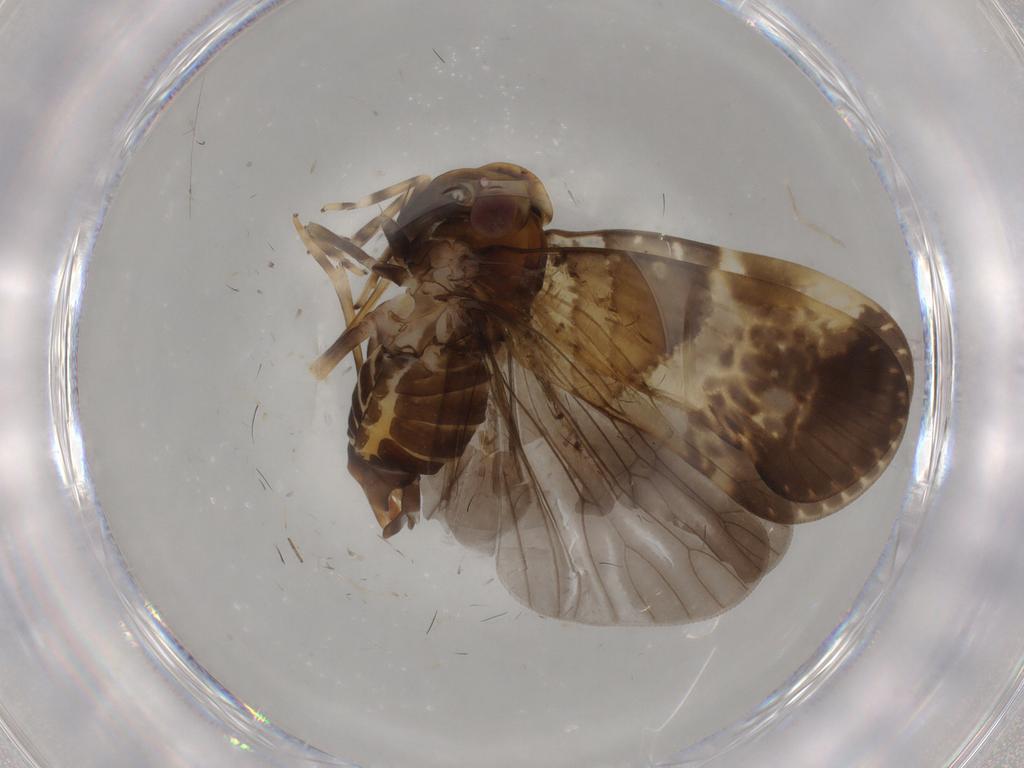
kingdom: Animalia
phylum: Arthropoda
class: Insecta
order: Hemiptera
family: Cixiidae
